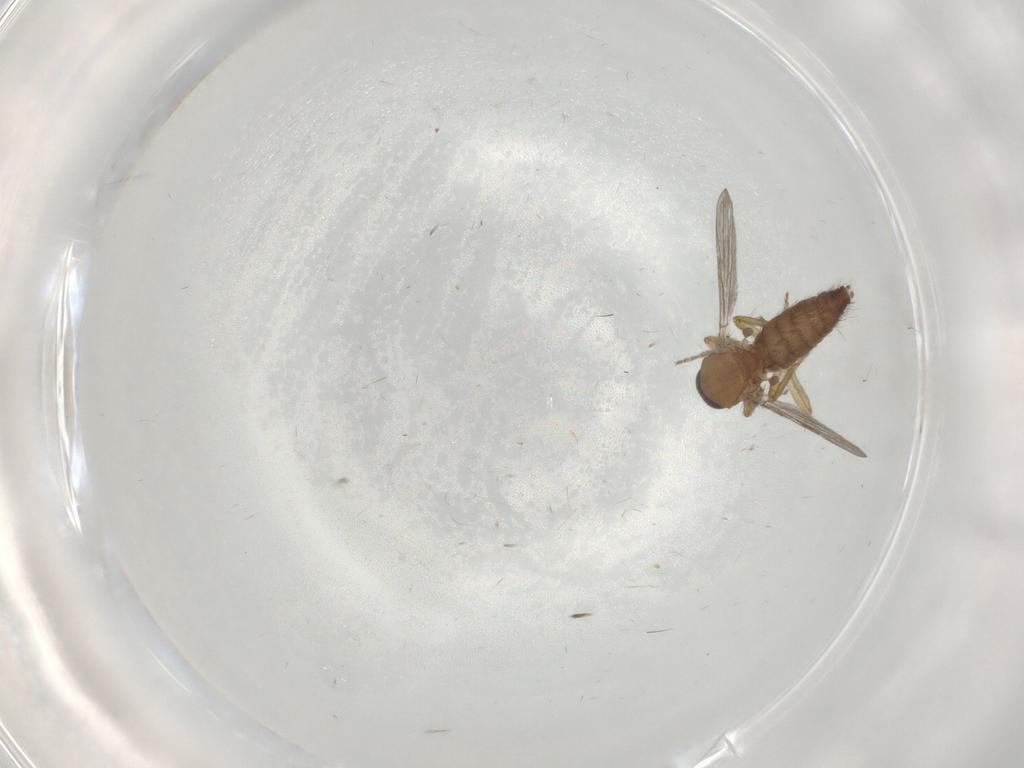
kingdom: Animalia
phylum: Arthropoda
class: Insecta
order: Diptera
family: Ceratopogonidae
